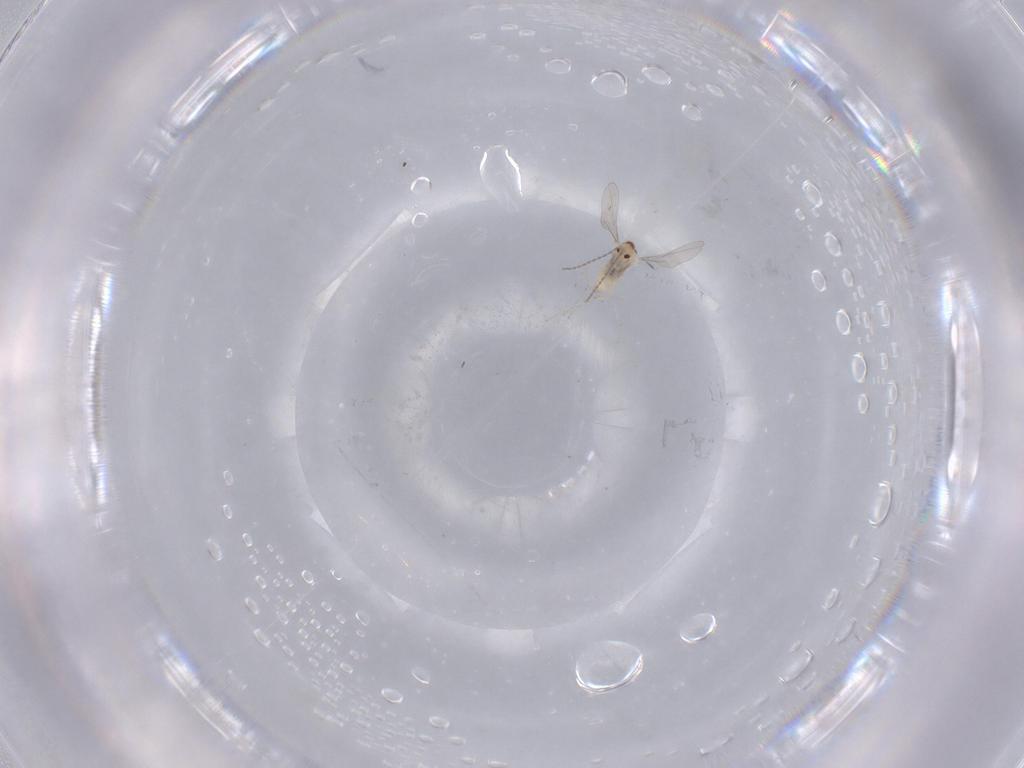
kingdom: Animalia
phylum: Arthropoda
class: Insecta
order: Diptera
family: Cecidomyiidae
